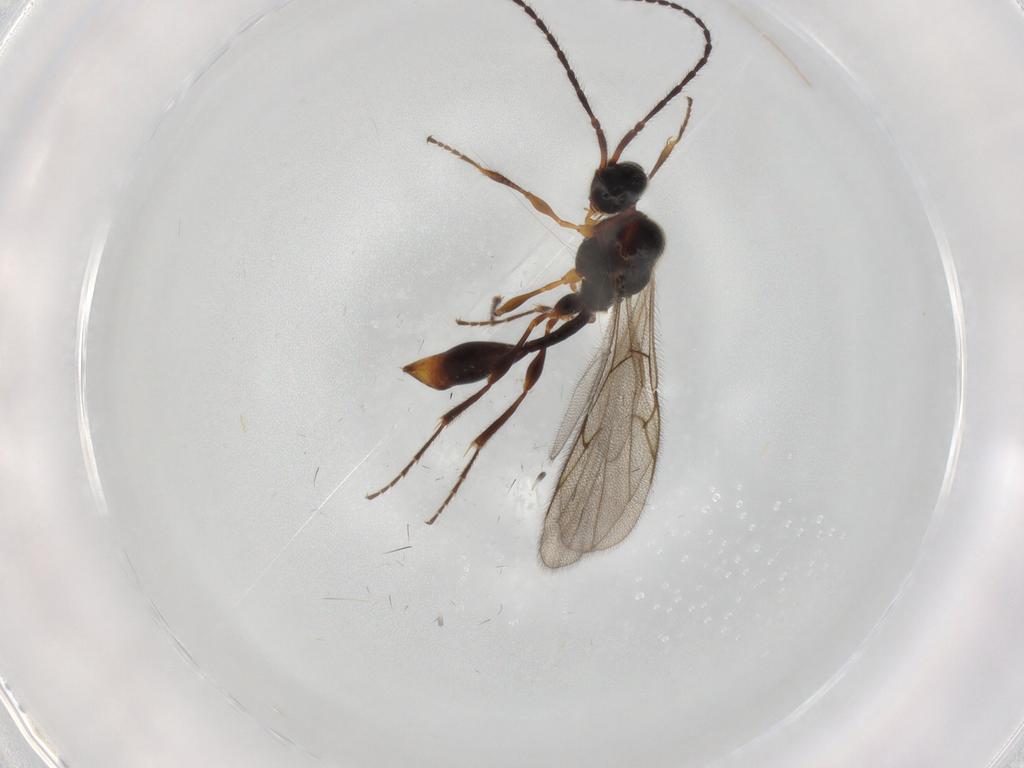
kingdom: Animalia
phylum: Arthropoda
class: Insecta
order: Hymenoptera
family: Diapriidae
